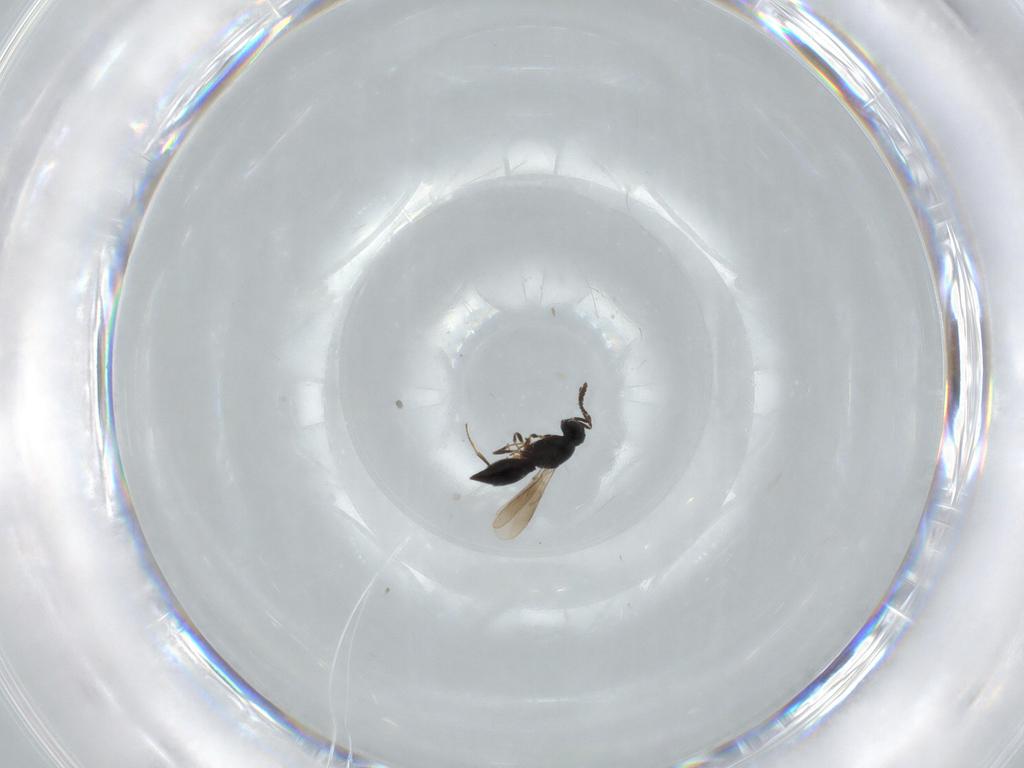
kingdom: Animalia
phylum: Arthropoda
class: Insecta
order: Hymenoptera
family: Scelionidae
